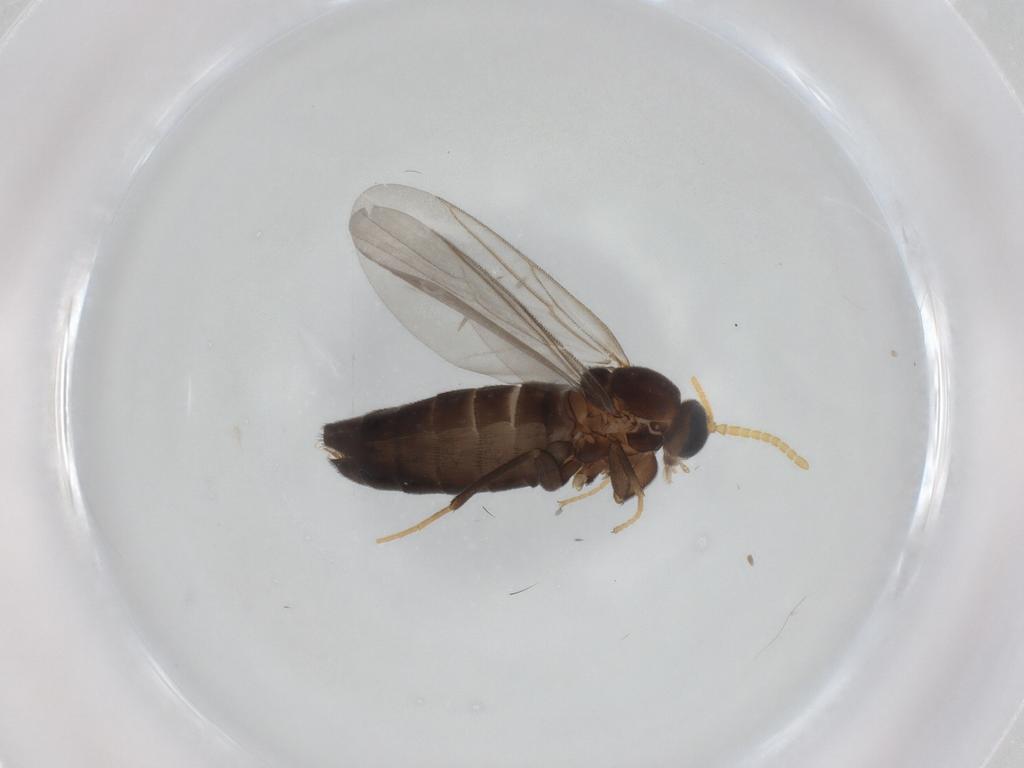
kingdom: Animalia
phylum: Arthropoda
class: Insecta
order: Diptera
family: Scatopsidae
